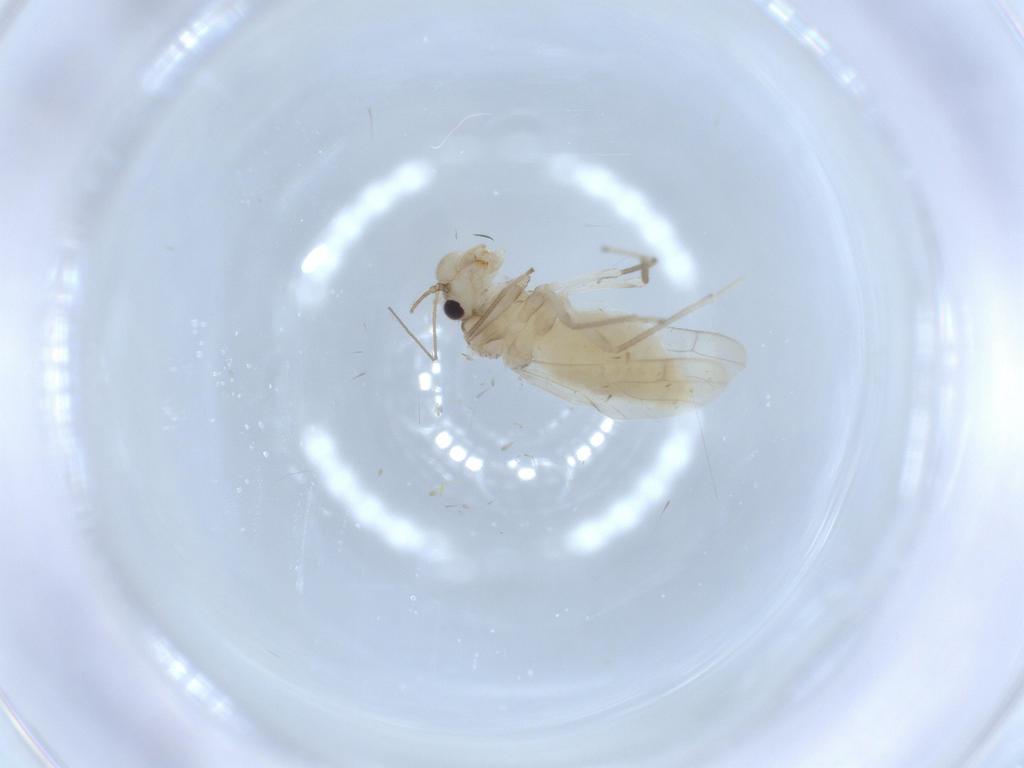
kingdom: Animalia
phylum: Arthropoda
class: Insecta
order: Psocodea
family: Caeciliusidae
